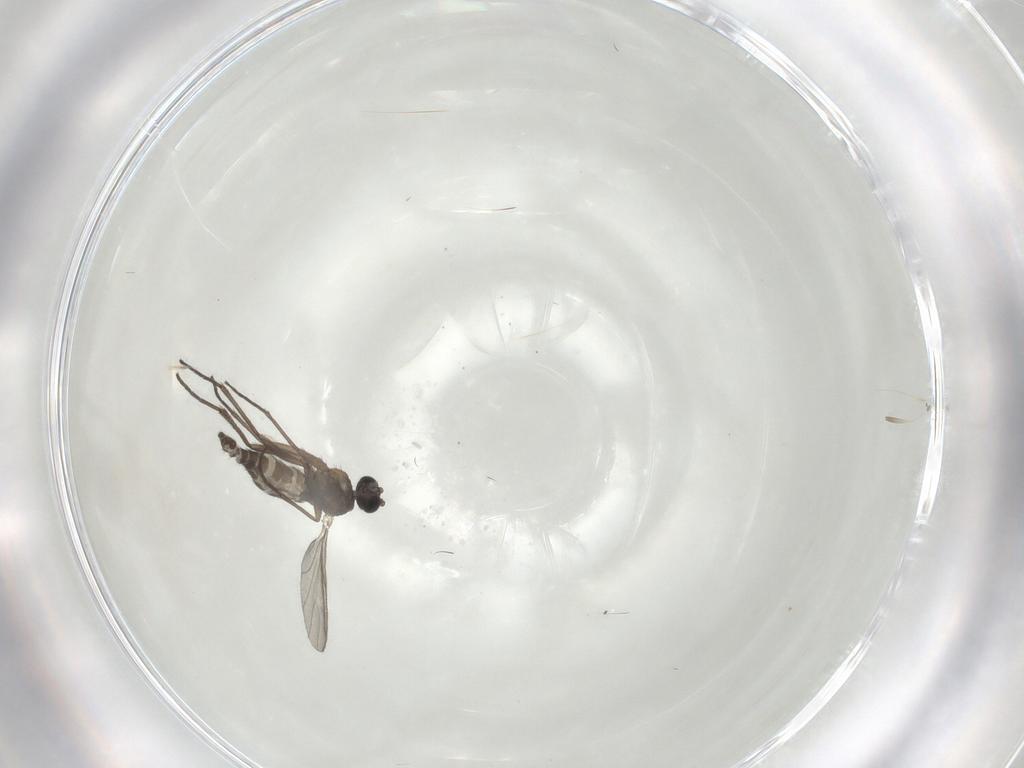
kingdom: Animalia
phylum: Arthropoda
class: Insecta
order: Diptera
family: Sciaridae
